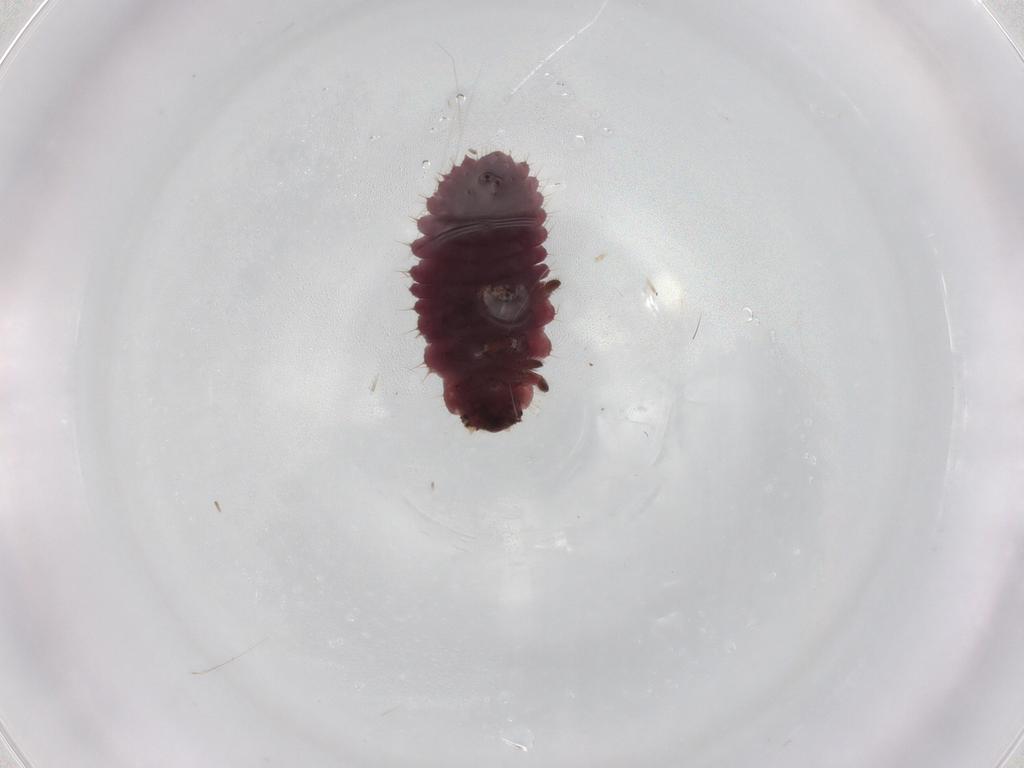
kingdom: Animalia
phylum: Arthropoda
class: Insecta
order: Coleoptera
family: Coccinellidae
